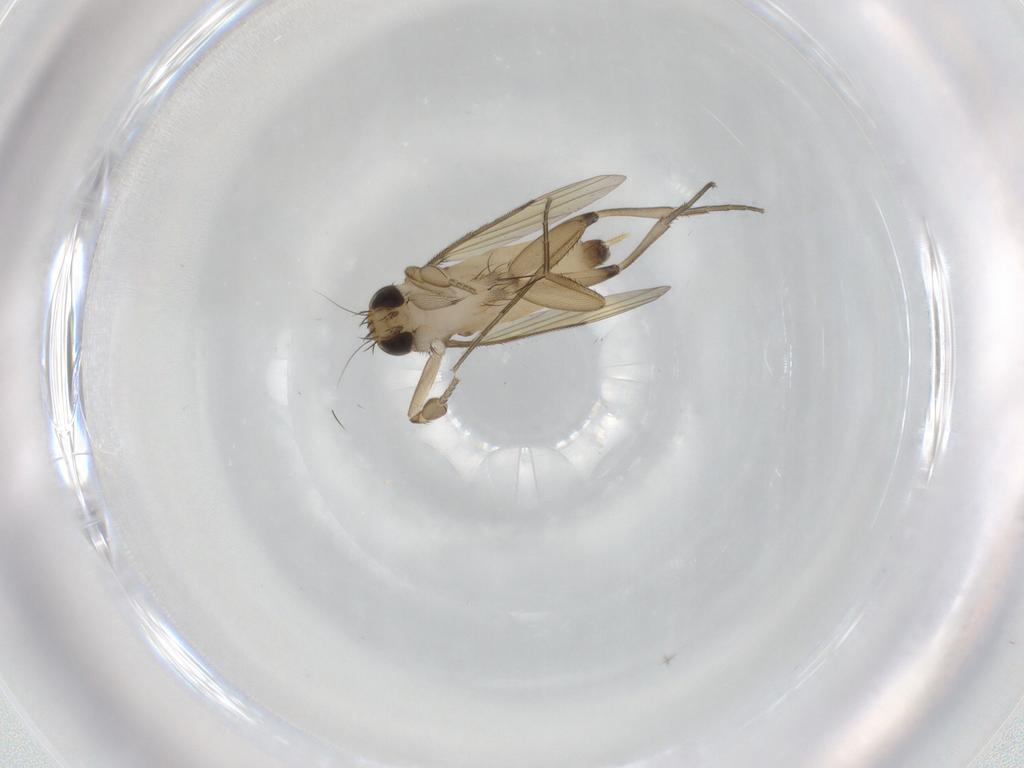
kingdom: Animalia
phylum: Arthropoda
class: Insecta
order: Diptera
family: Phoridae
